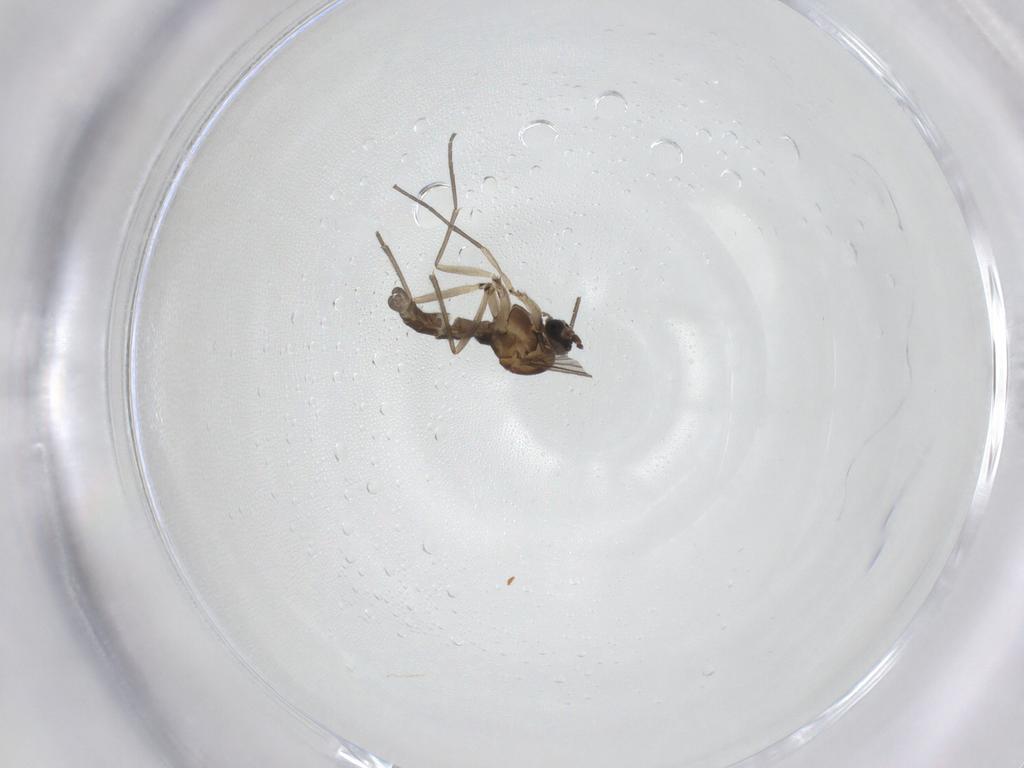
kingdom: Animalia
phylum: Arthropoda
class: Insecta
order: Diptera
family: Sciaridae
